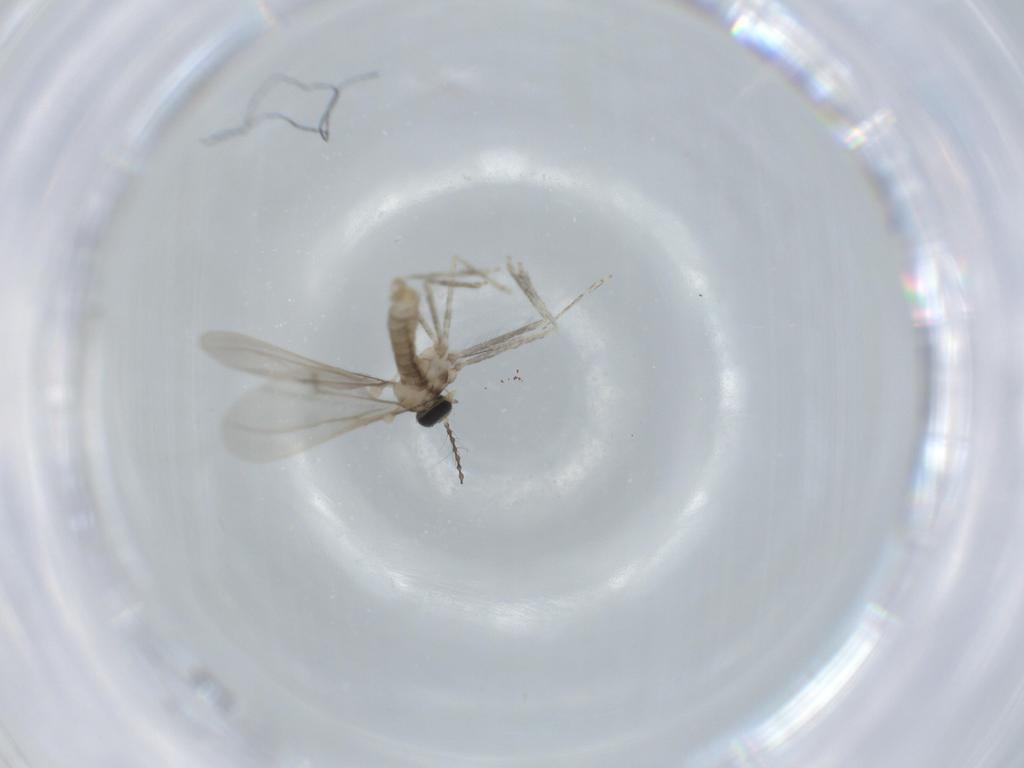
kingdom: Animalia
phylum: Arthropoda
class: Insecta
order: Diptera
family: Cecidomyiidae
